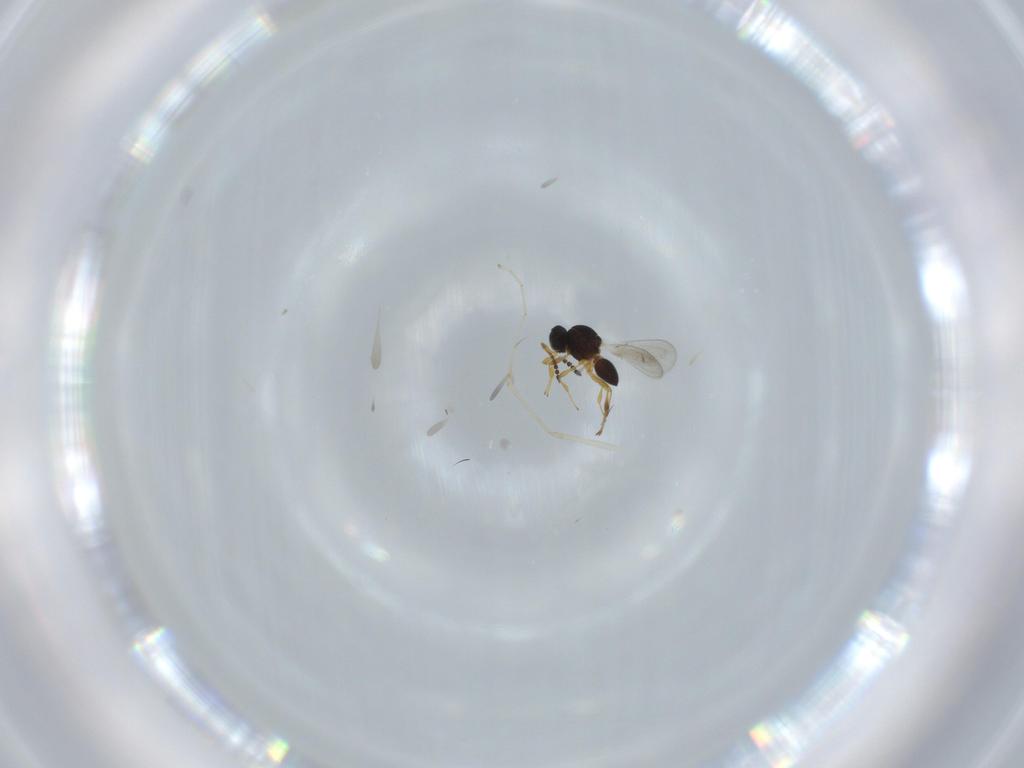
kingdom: Animalia
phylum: Arthropoda
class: Insecta
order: Hymenoptera
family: Platygastridae
